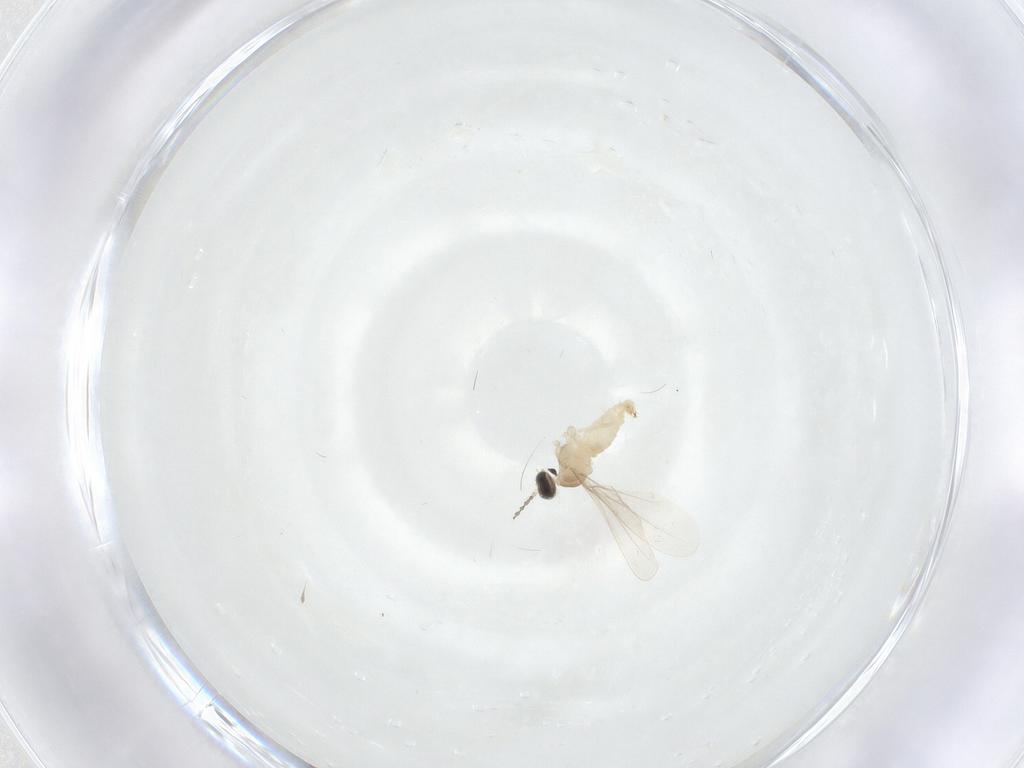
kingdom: Animalia
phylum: Arthropoda
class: Insecta
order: Diptera
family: Cecidomyiidae
